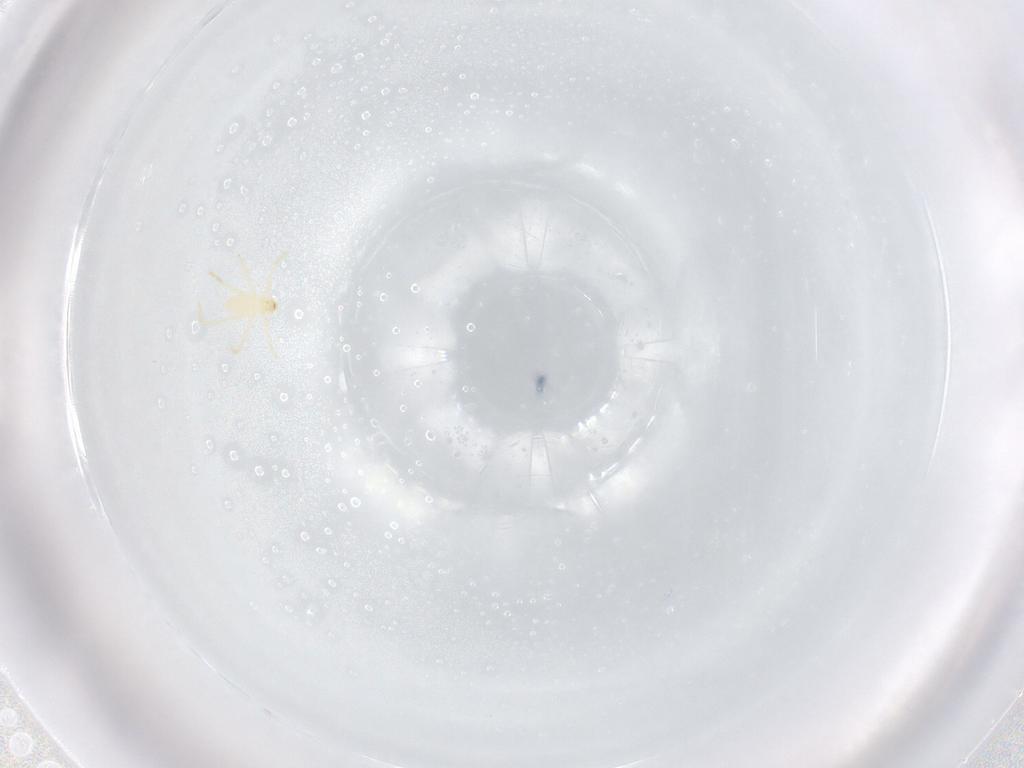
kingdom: Animalia
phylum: Arthropoda
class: Arachnida
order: Trombidiformes
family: Erythraeidae
